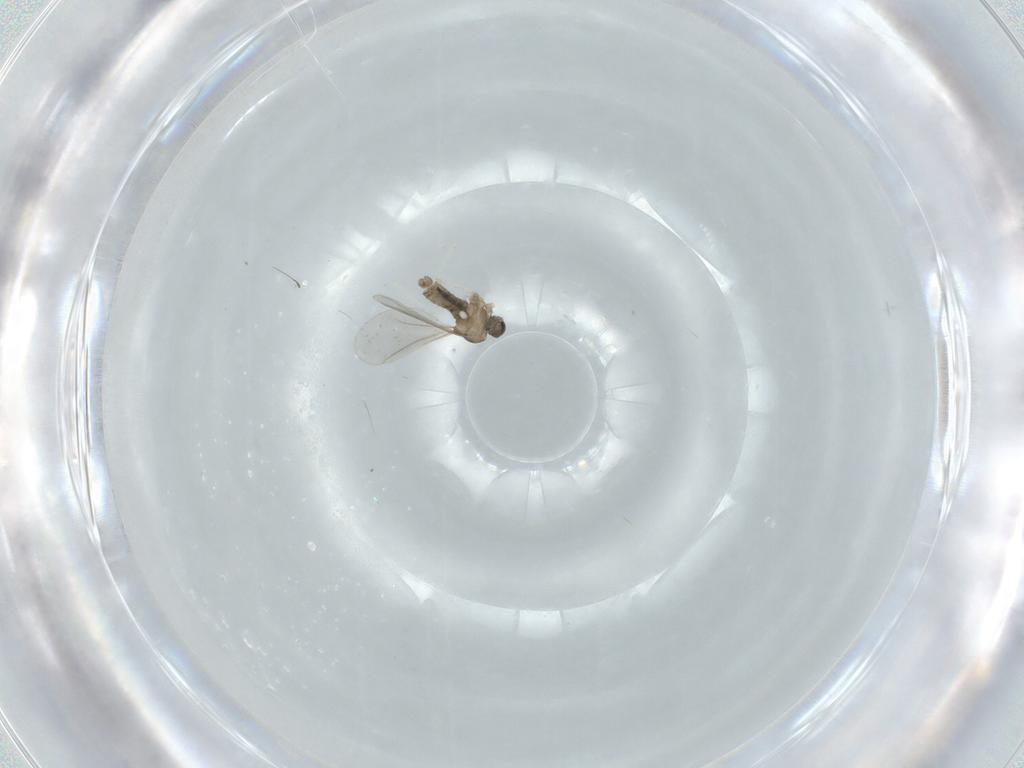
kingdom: Animalia
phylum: Arthropoda
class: Insecta
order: Diptera
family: Cecidomyiidae
